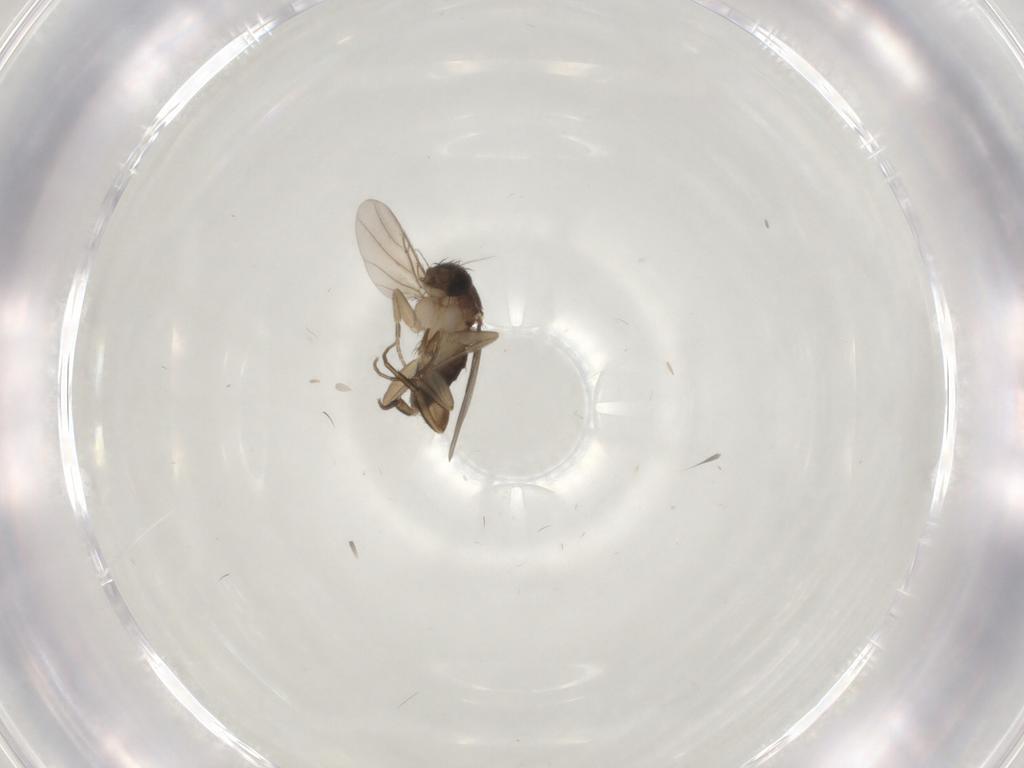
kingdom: Animalia
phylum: Arthropoda
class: Insecta
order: Diptera
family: Phoridae
